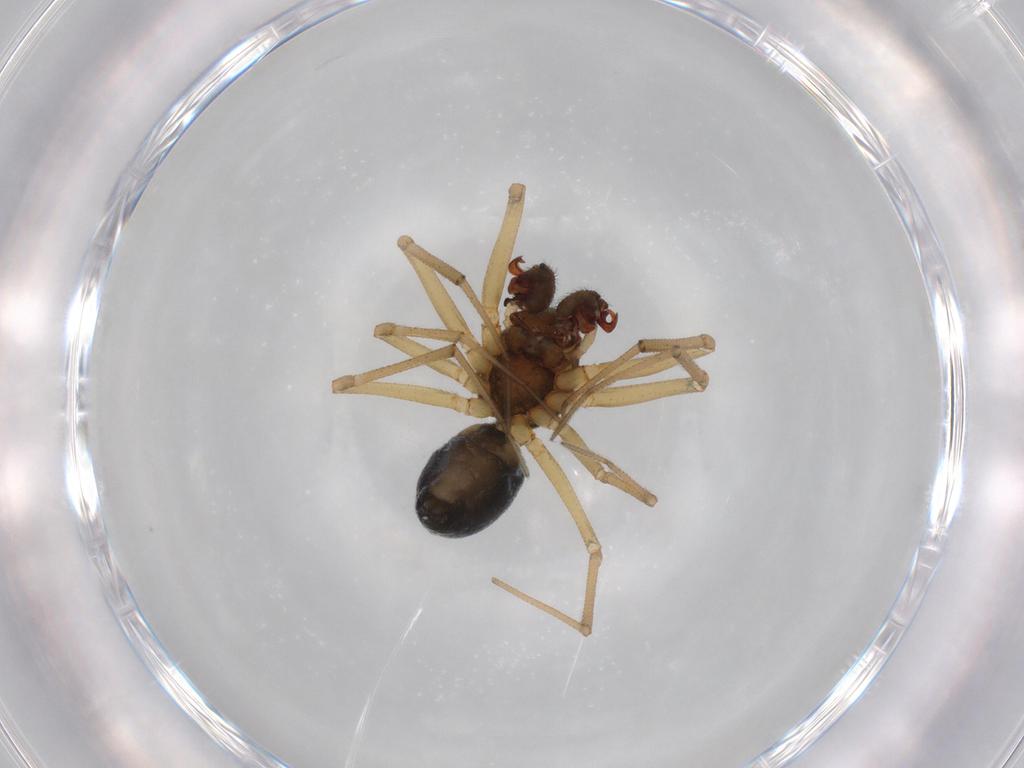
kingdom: Animalia
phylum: Arthropoda
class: Arachnida
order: Araneae
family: Linyphiidae
